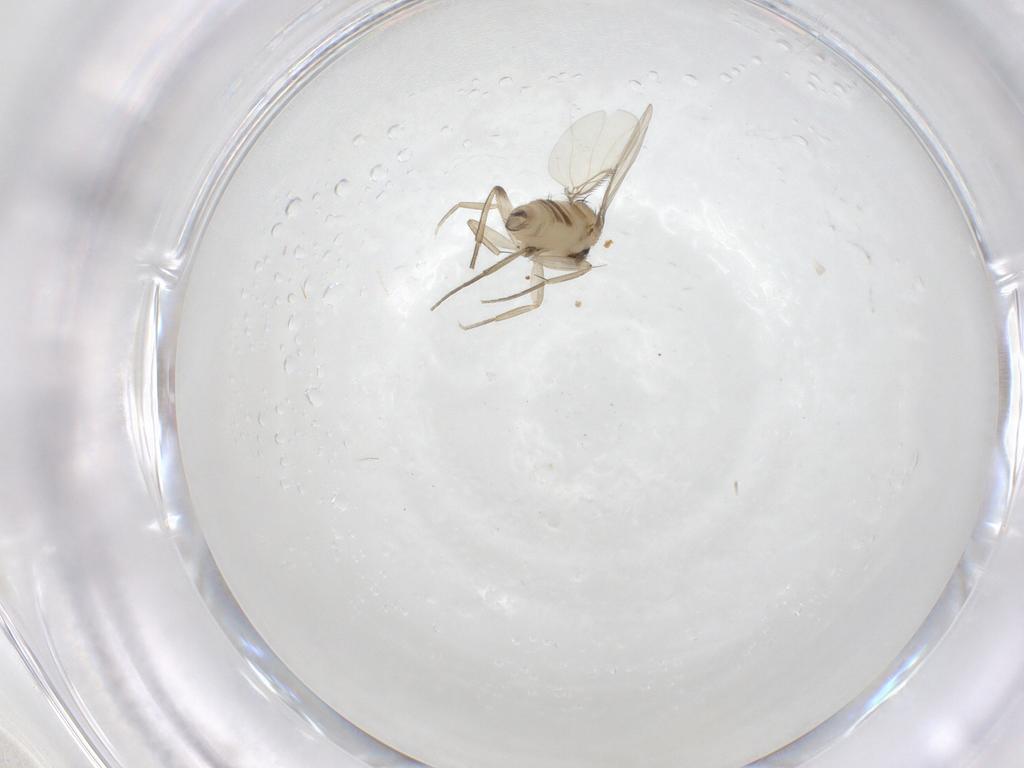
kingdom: Animalia
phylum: Arthropoda
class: Insecta
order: Diptera
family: Phoridae
